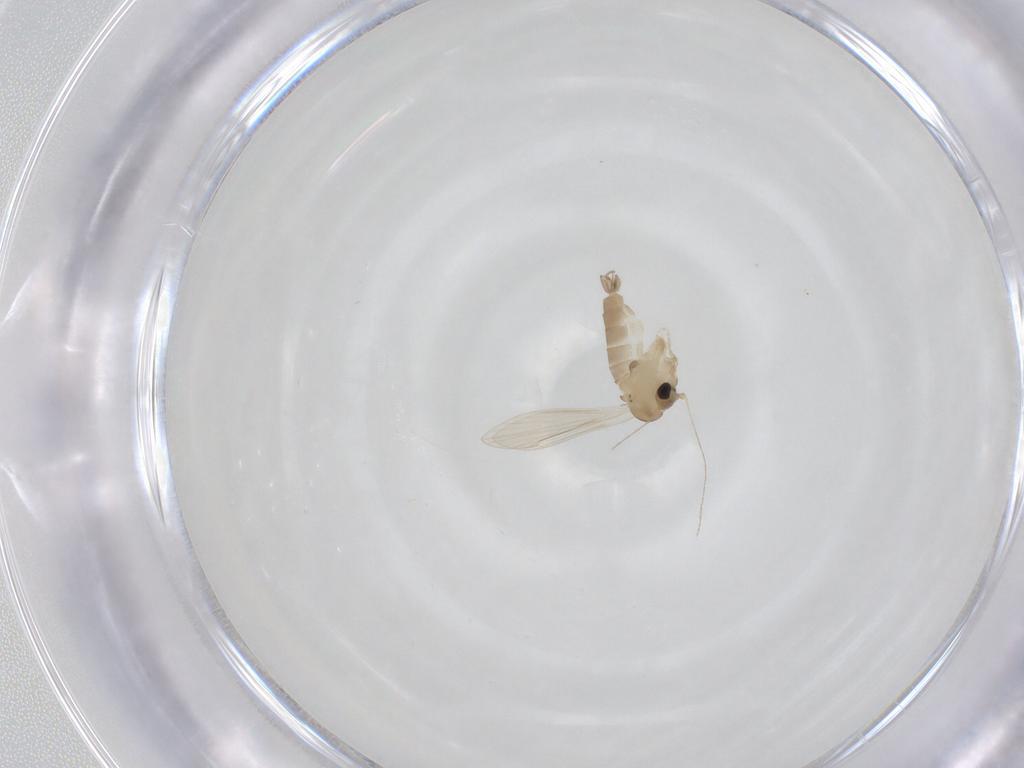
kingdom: Animalia
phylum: Arthropoda
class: Insecta
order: Diptera
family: Psychodidae
